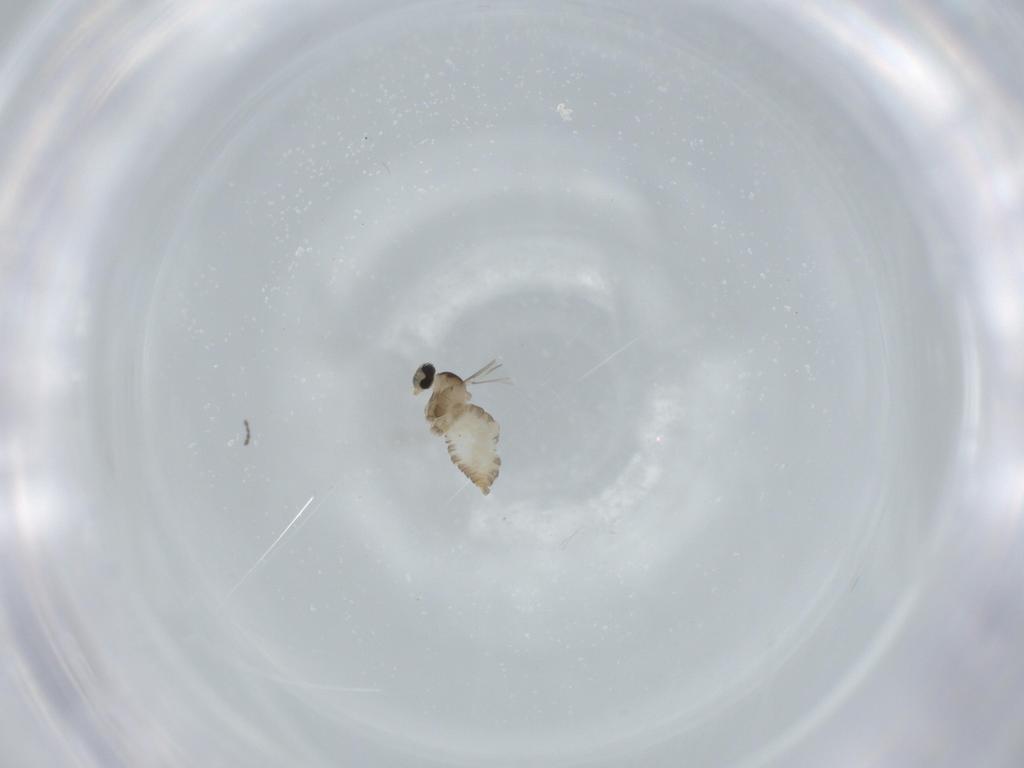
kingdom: Animalia
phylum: Arthropoda
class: Insecta
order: Diptera
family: Cecidomyiidae
